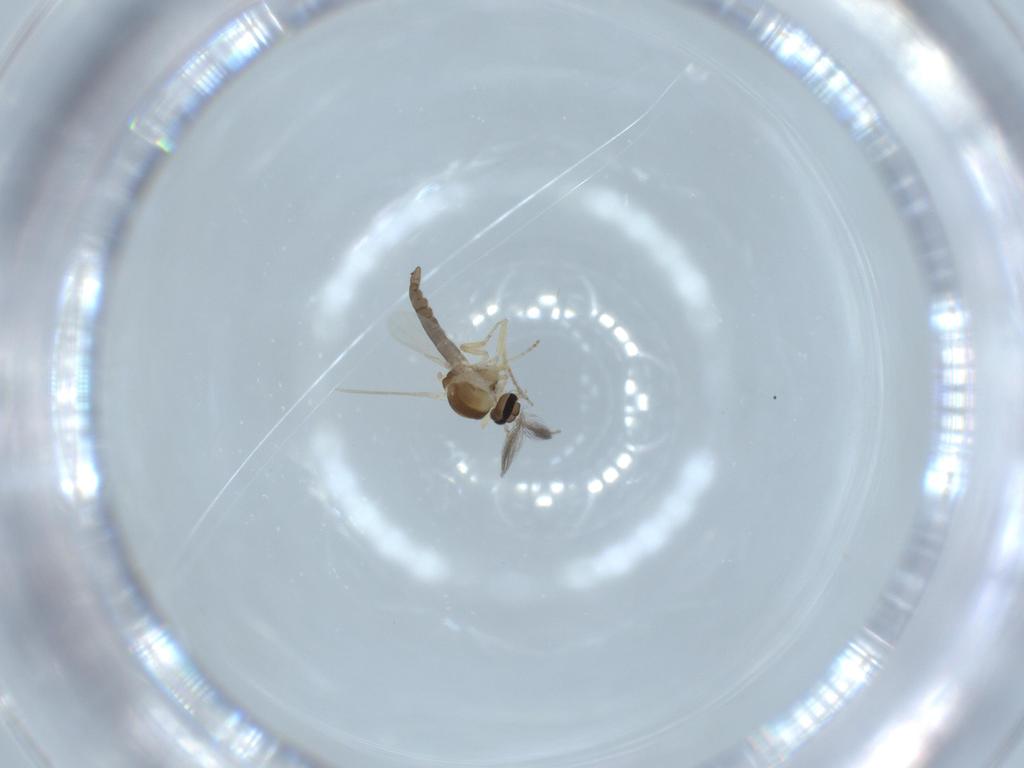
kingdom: Animalia
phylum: Arthropoda
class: Insecta
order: Diptera
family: Ceratopogonidae
